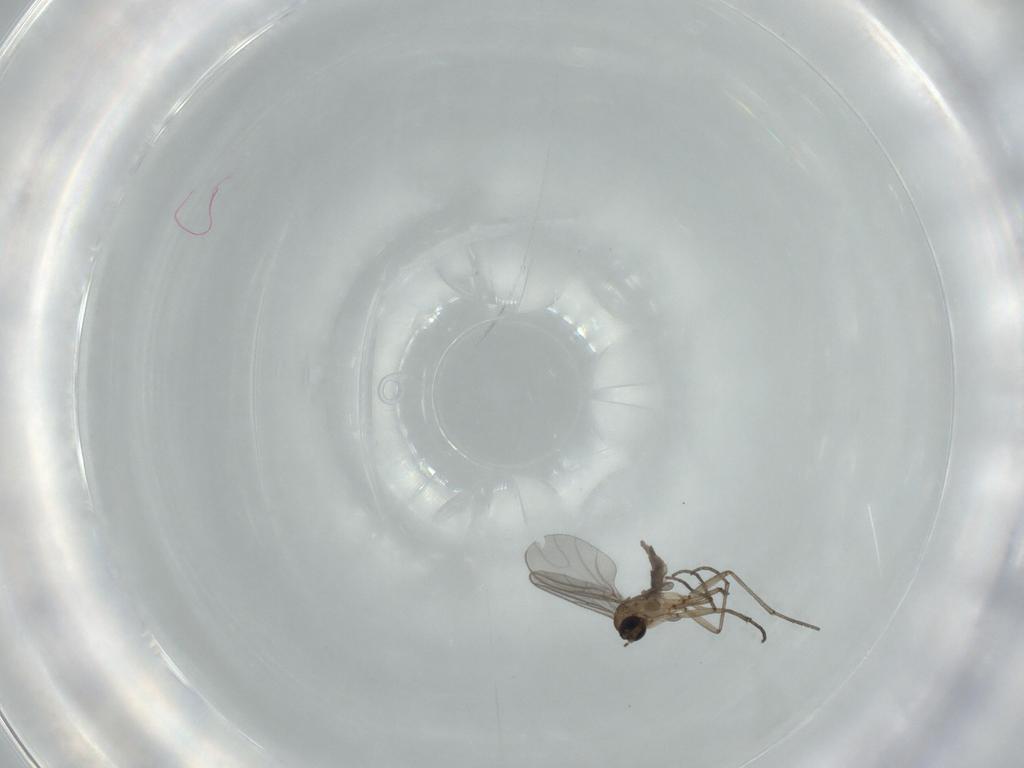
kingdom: Animalia
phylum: Arthropoda
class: Insecta
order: Diptera
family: Sciaridae
